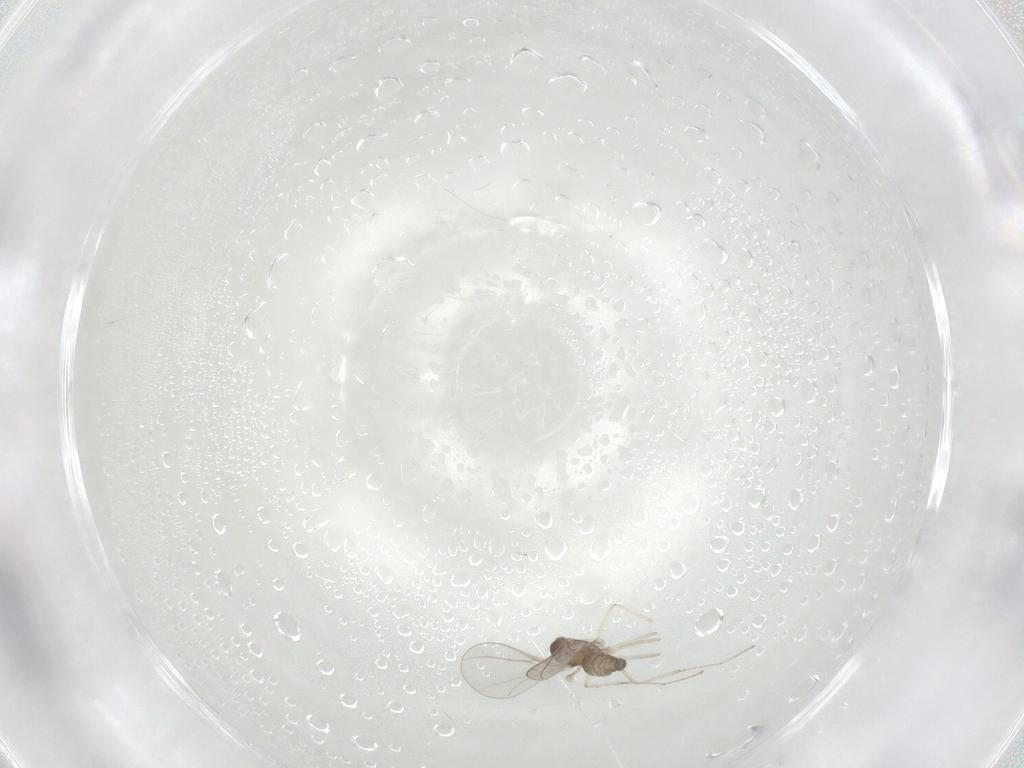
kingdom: Animalia
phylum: Arthropoda
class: Insecta
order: Diptera
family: Cecidomyiidae
